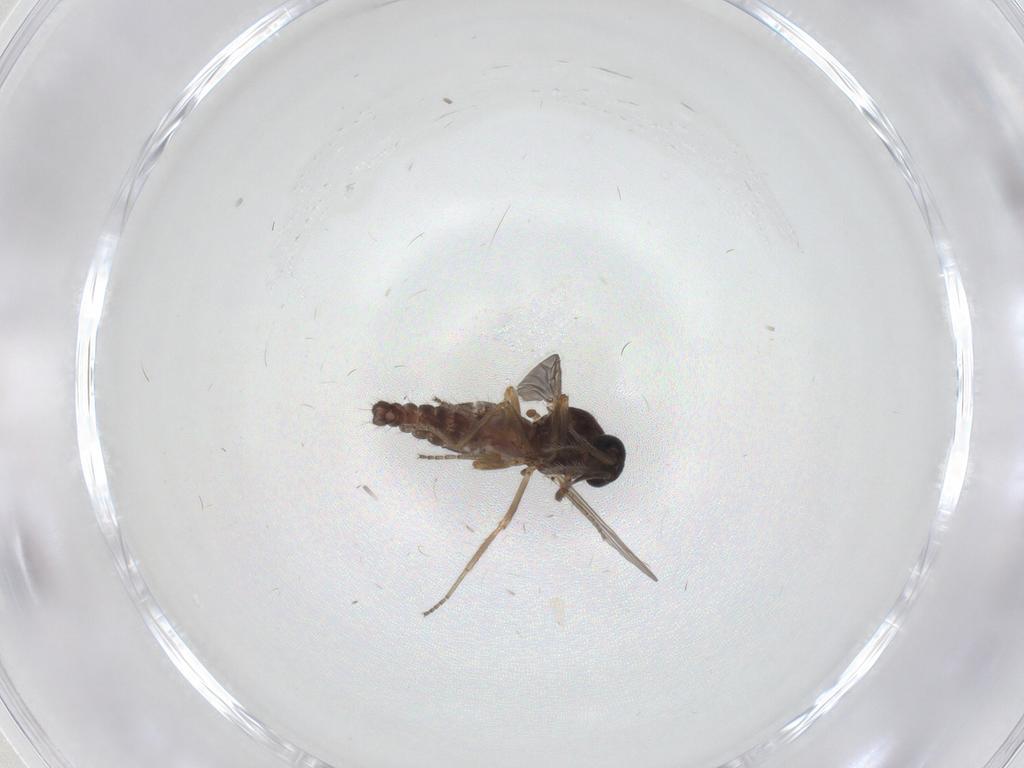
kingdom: Animalia
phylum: Arthropoda
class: Insecta
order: Diptera
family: Ceratopogonidae
